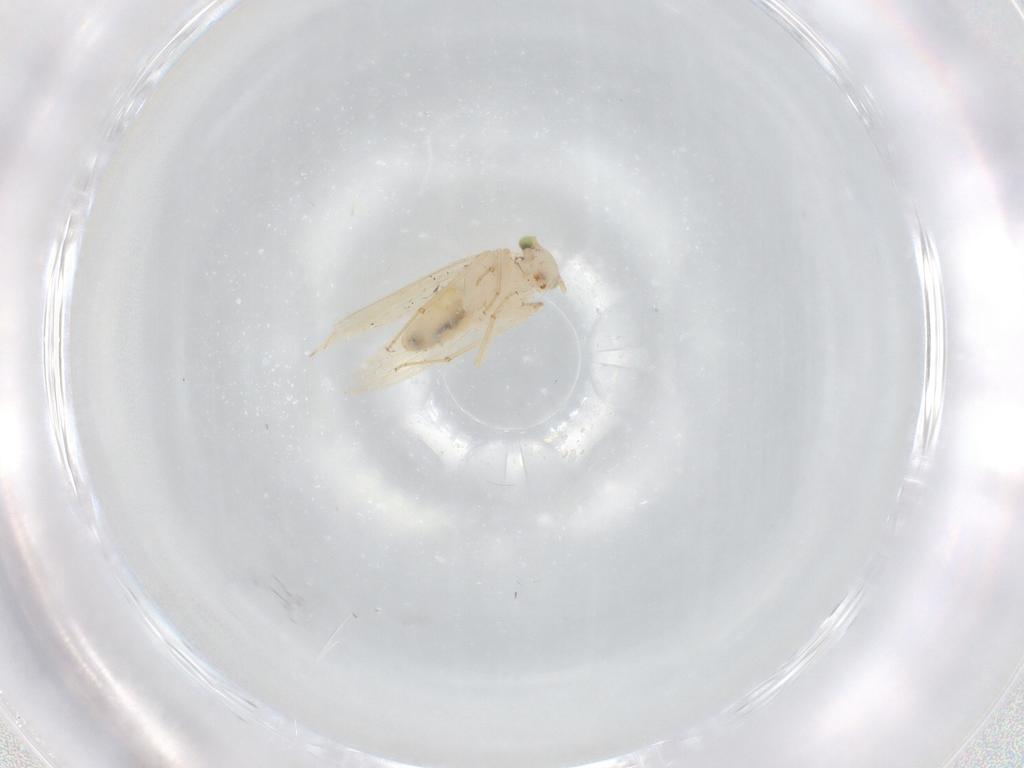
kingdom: Animalia
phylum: Arthropoda
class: Insecta
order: Psocodea
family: Lepidopsocidae
